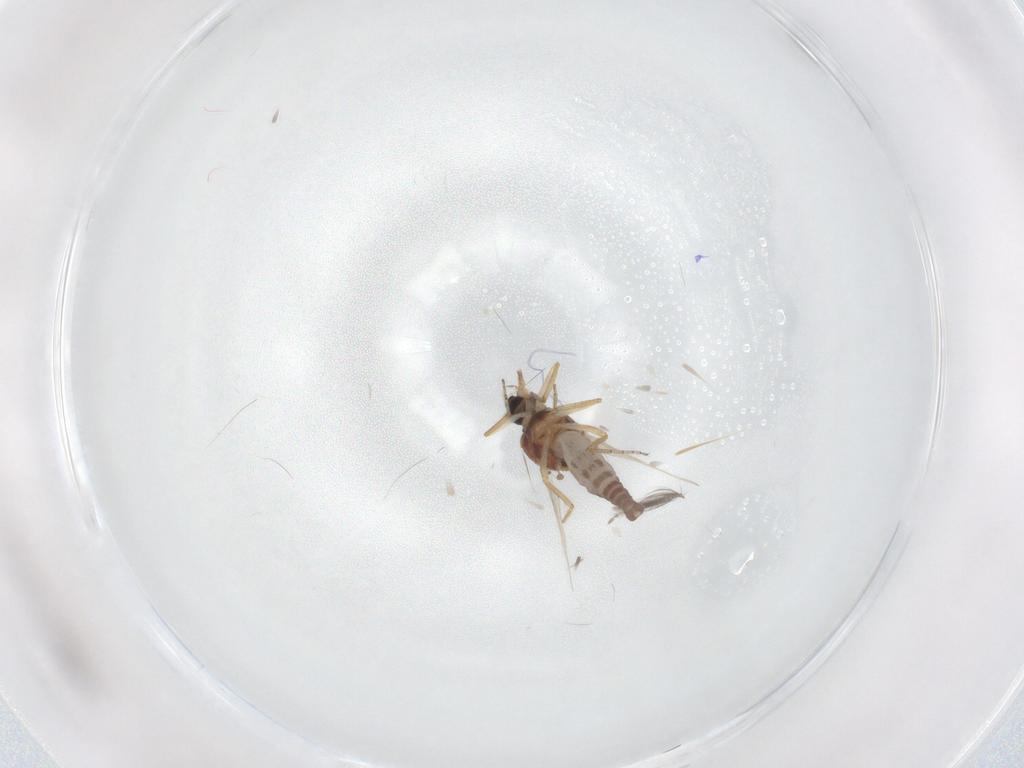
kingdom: Animalia
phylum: Arthropoda
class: Insecta
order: Diptera
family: Ceratopogonidae
